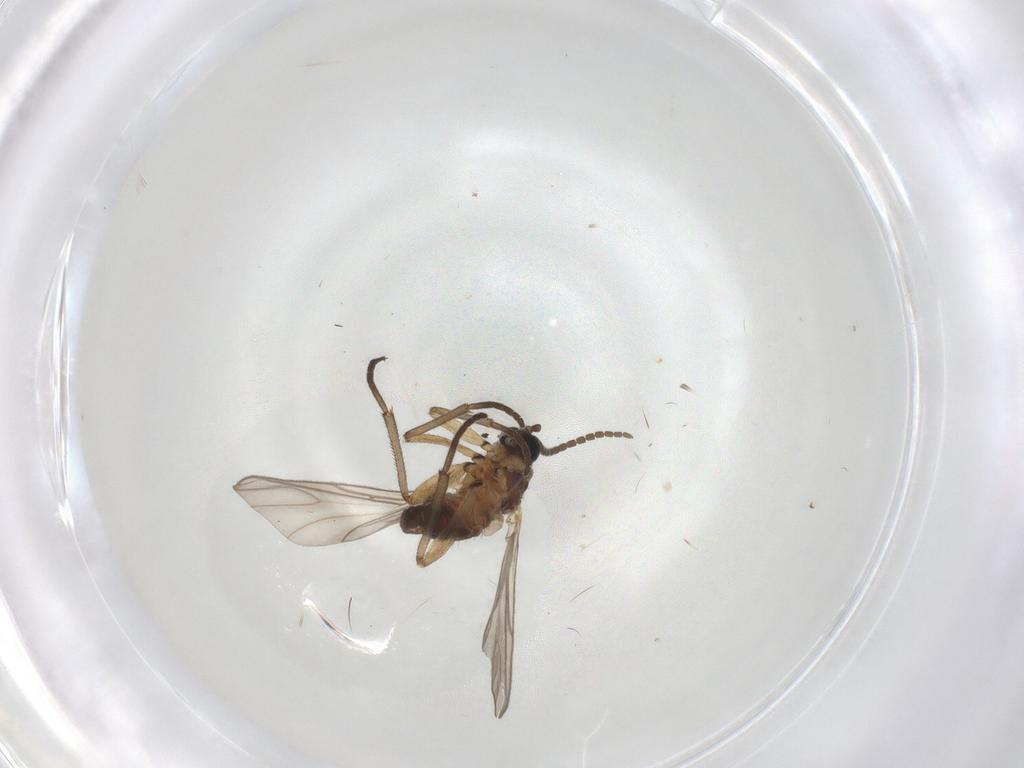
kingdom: Animalia
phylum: Arthropoda
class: Insecta
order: Diptera
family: Sciaridae
